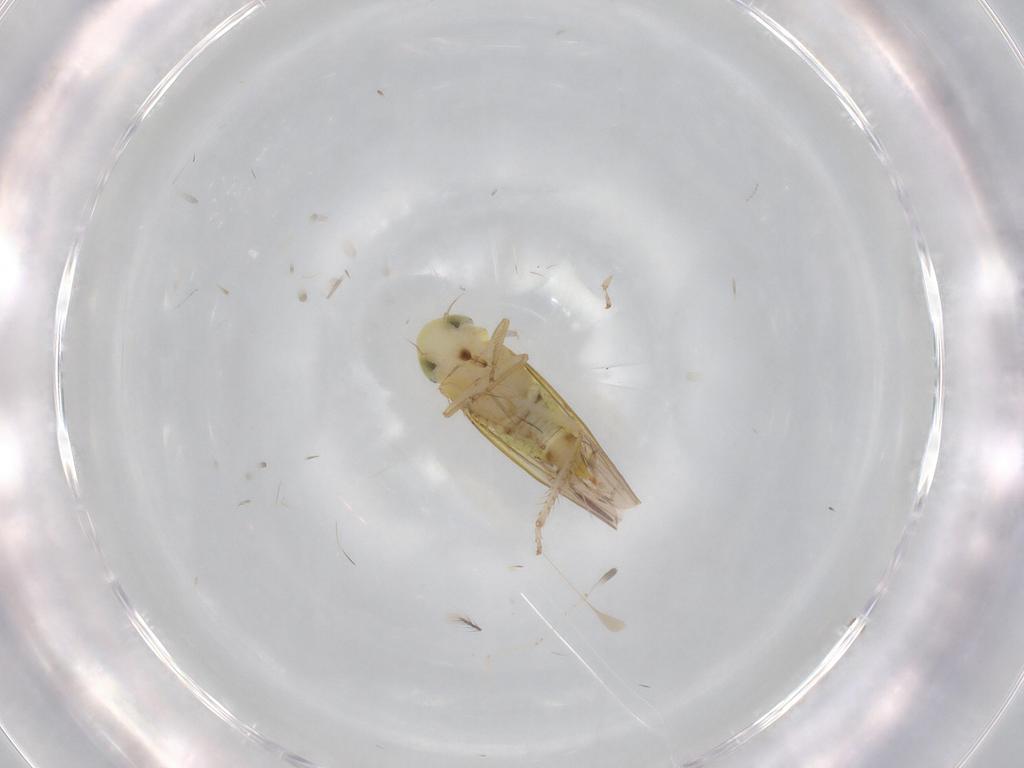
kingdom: Animalia
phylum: Arthropoda
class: Insecta
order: Hemiptera
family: Cicadellidae
